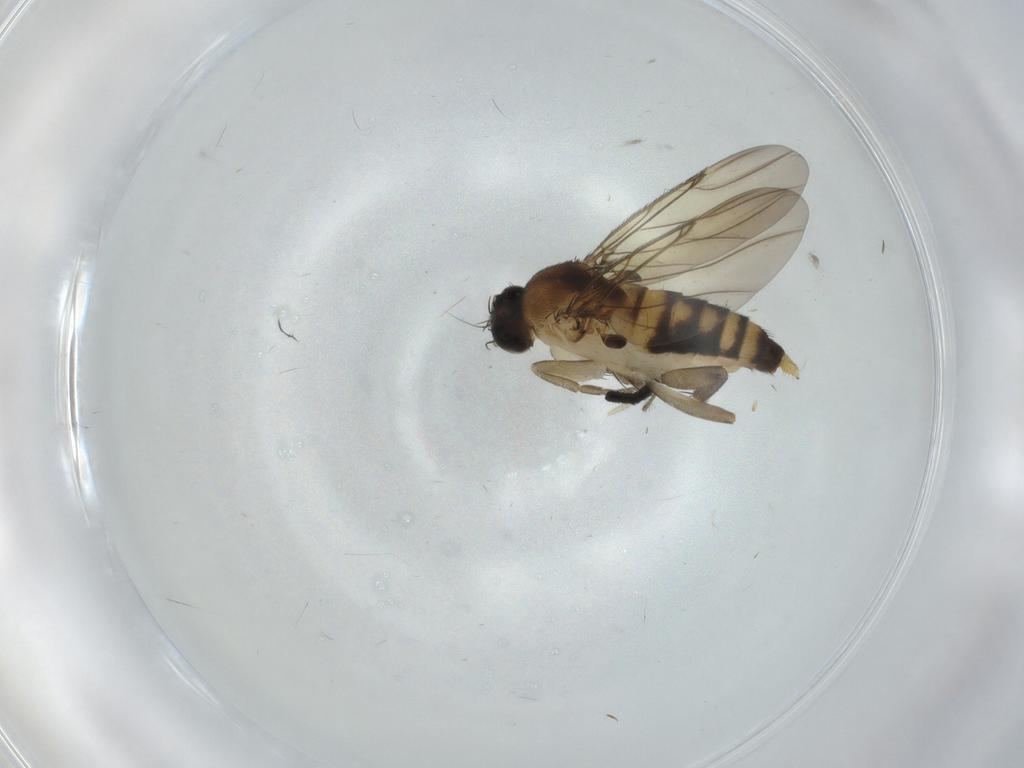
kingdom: Animalia
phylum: Arthropoda
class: Insecta
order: Diptera
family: Phoridae
